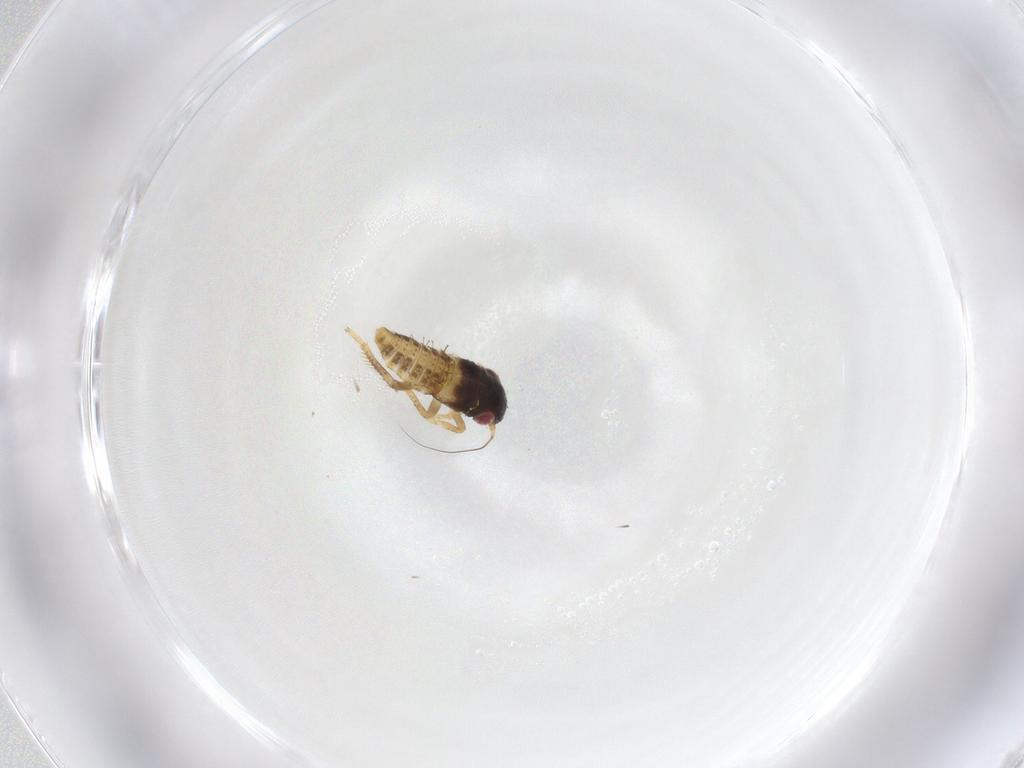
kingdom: Animalia
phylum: Arthropoda
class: Insecta
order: Hemiptera
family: Cicadellidae
